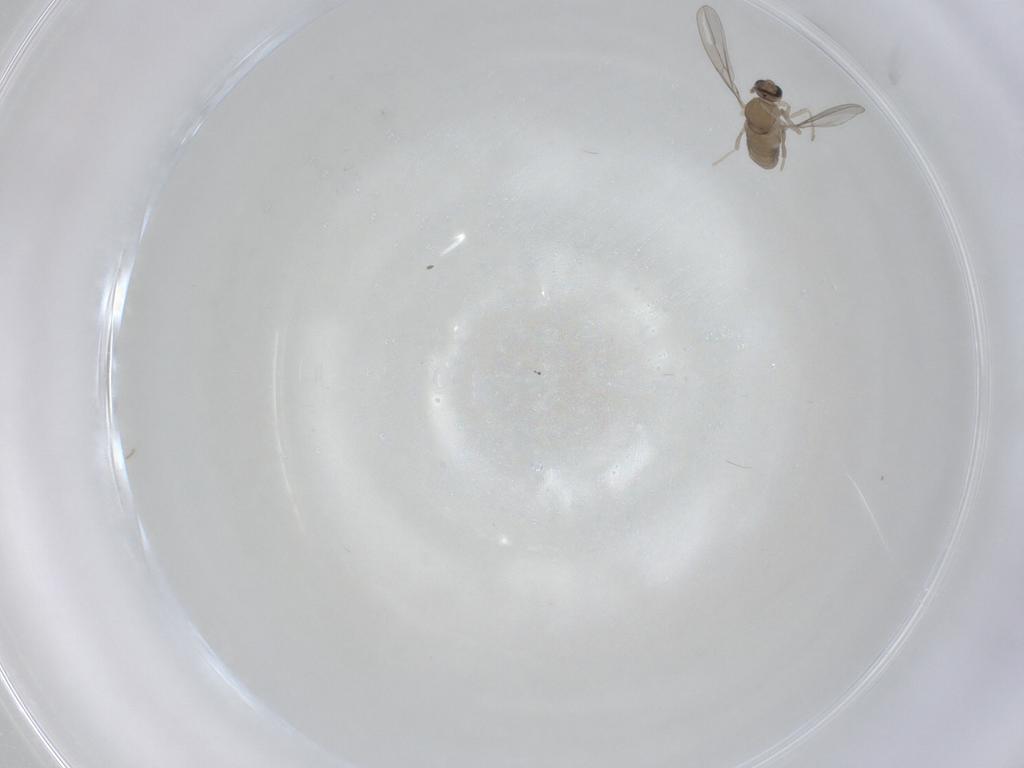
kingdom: Animalia
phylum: Arthropoda
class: Insecta
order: Diptera
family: Cecidomyiidae
